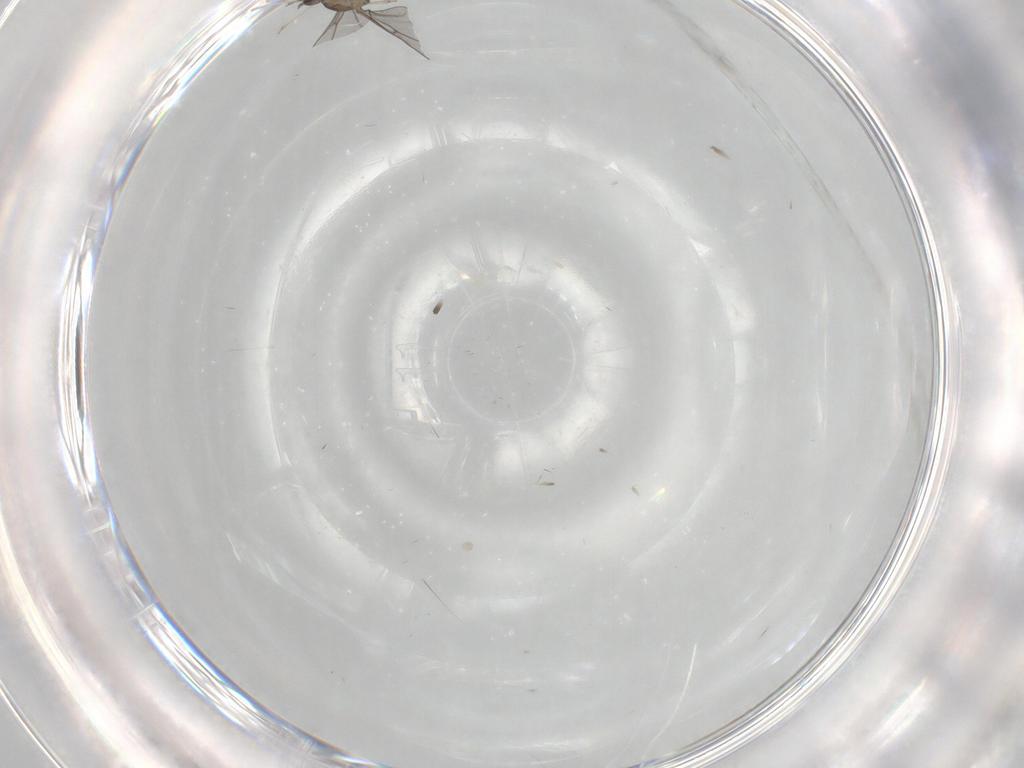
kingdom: Animalia
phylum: Arthropoda
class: Insecta
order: Diptera
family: Cecidomyiidae
